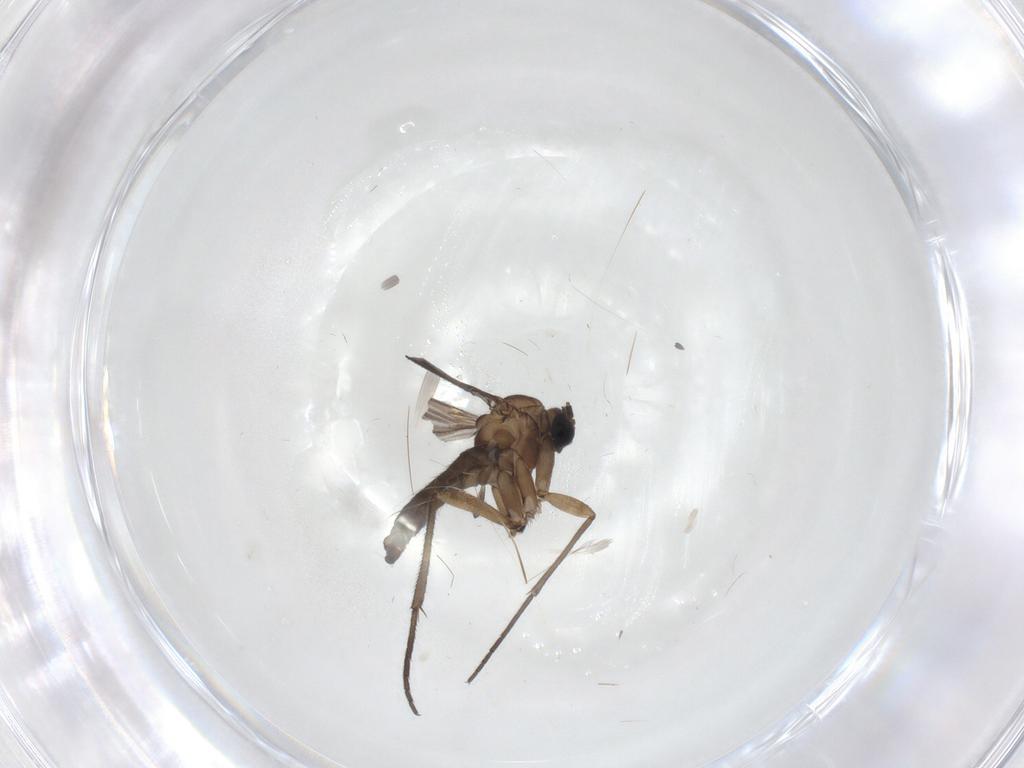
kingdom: Animalia
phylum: Arthropoda
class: Insecta
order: Diptera
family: Sciaridae
